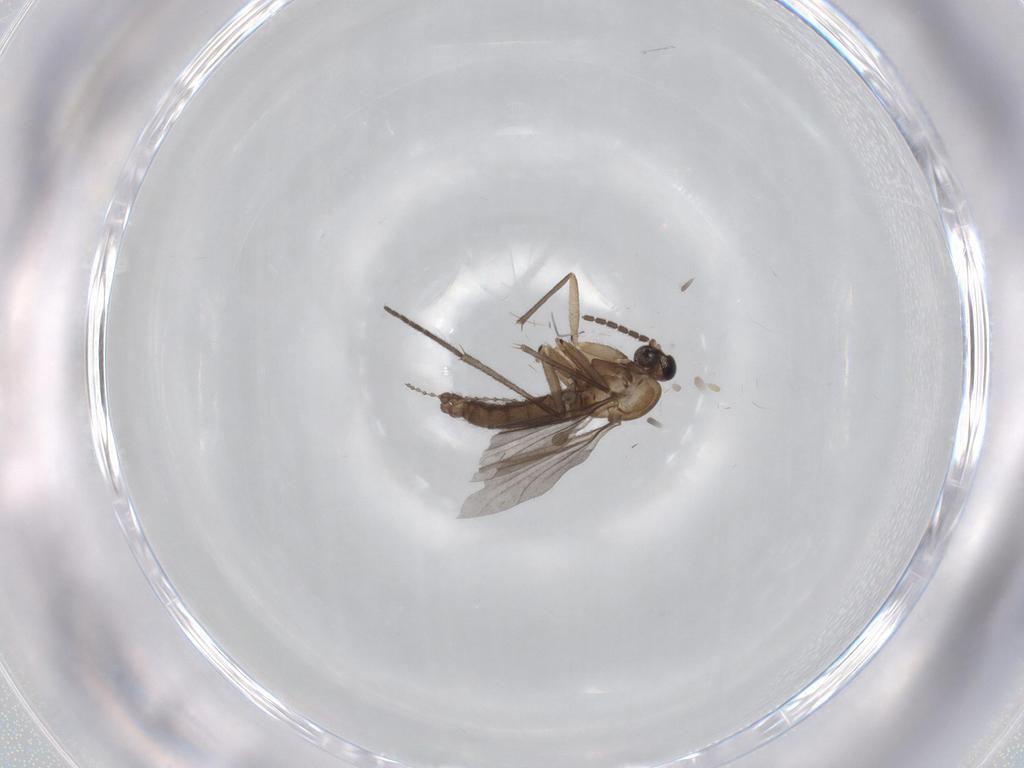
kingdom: Animalia
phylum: Arthropoda
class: Insecta
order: Diptera
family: Sciaridae
